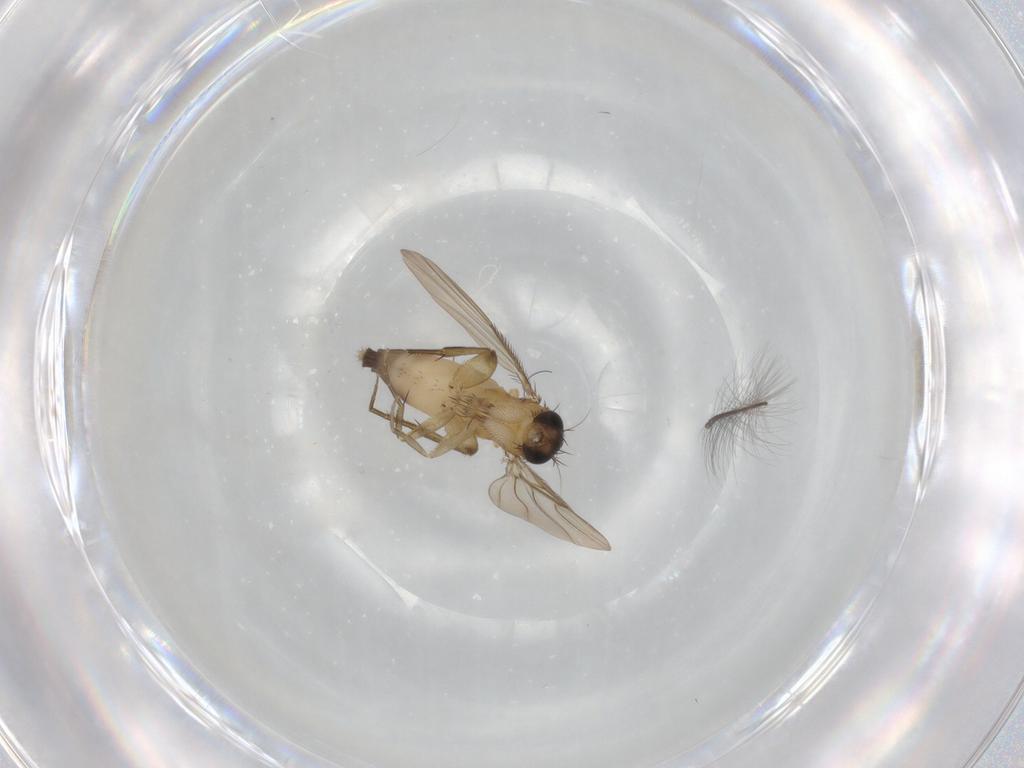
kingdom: Animalia
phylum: Arthropoda
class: Insecta
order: Diptera
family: Phoridae
